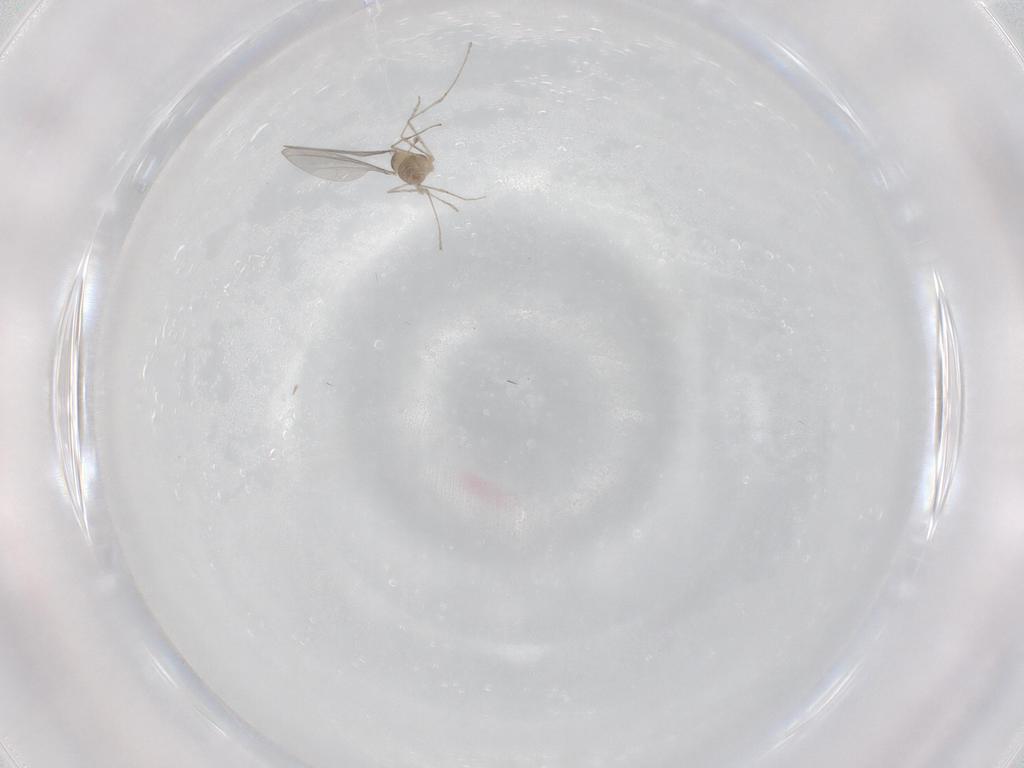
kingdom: Animalia
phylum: Arthropoda
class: Insecta
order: Diptera
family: Cecidomyiidae
